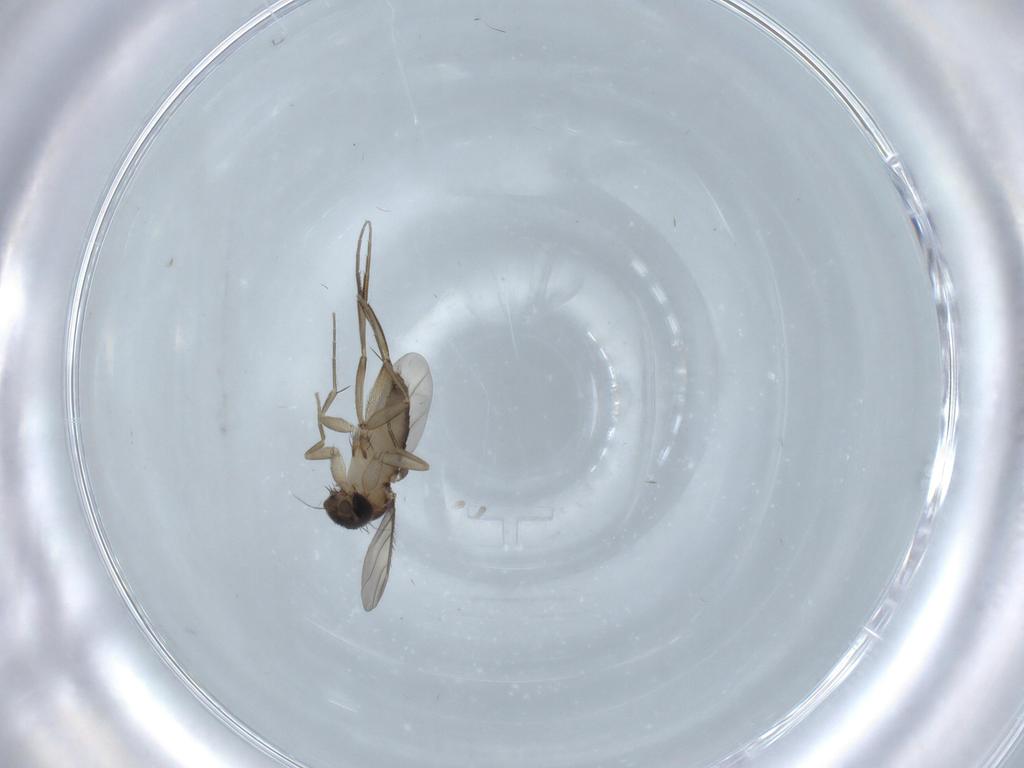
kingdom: Animalia
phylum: Arthropoda
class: Insecta
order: Diptera
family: Phoridae
